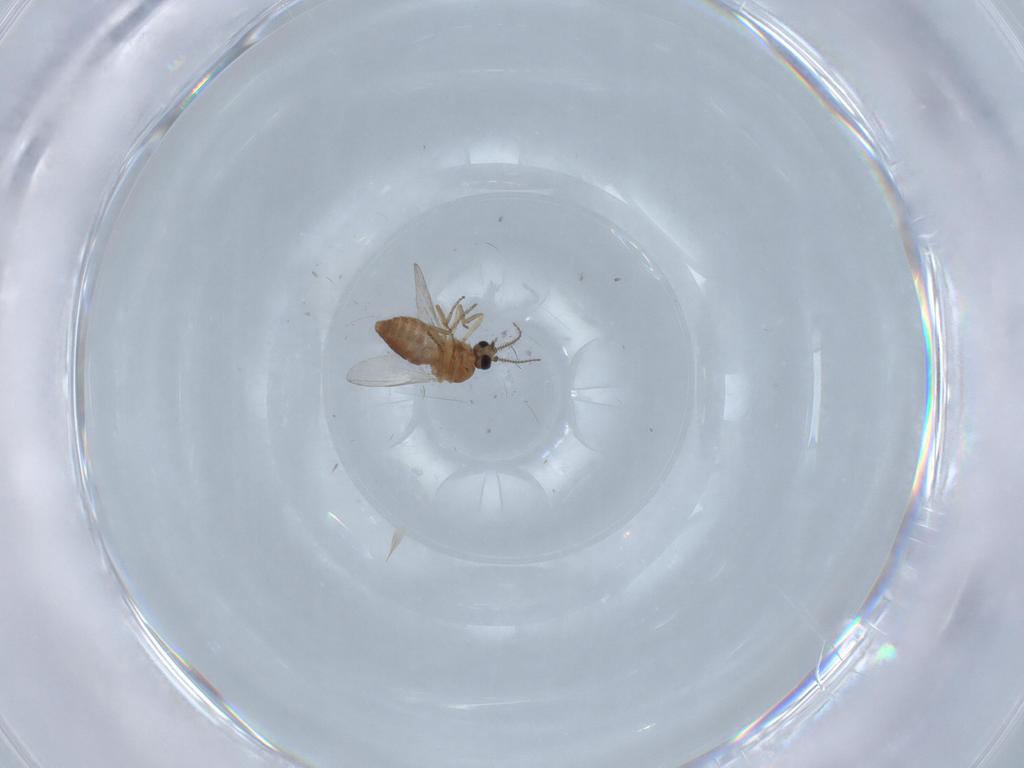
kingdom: Animalia
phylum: Arthropoda
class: Insecta
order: Diptera
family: Ceratopogonidae
